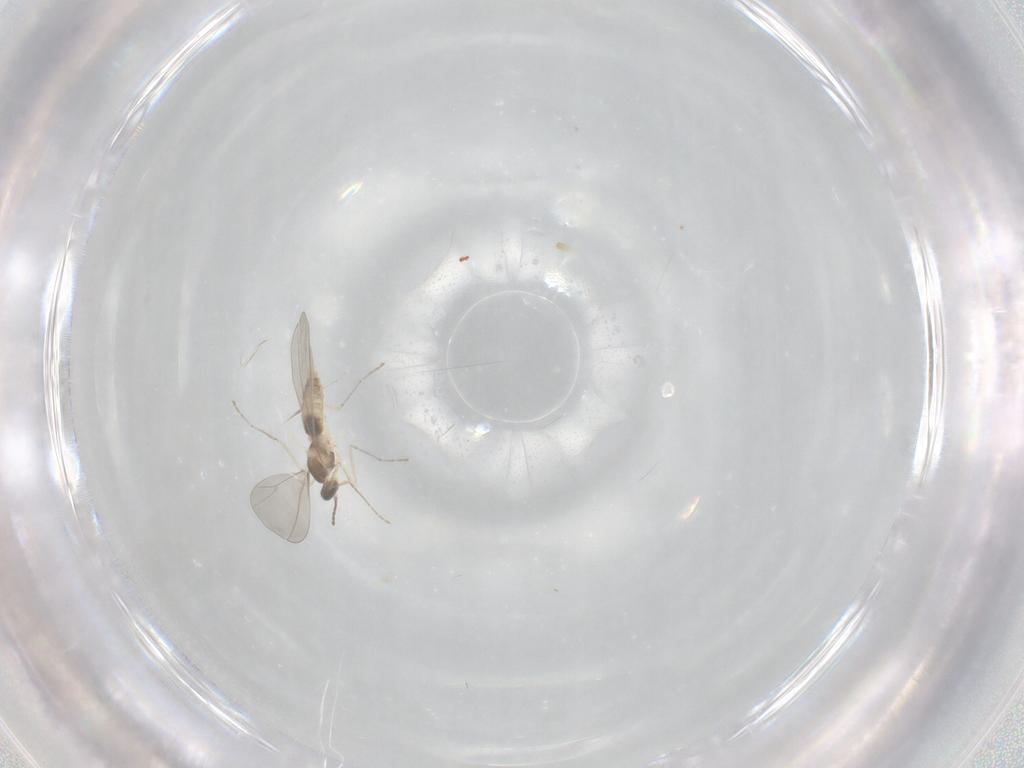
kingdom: Animalia
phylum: Arthropoda
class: Insecta
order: Diptera
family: Cecidomyiidae
